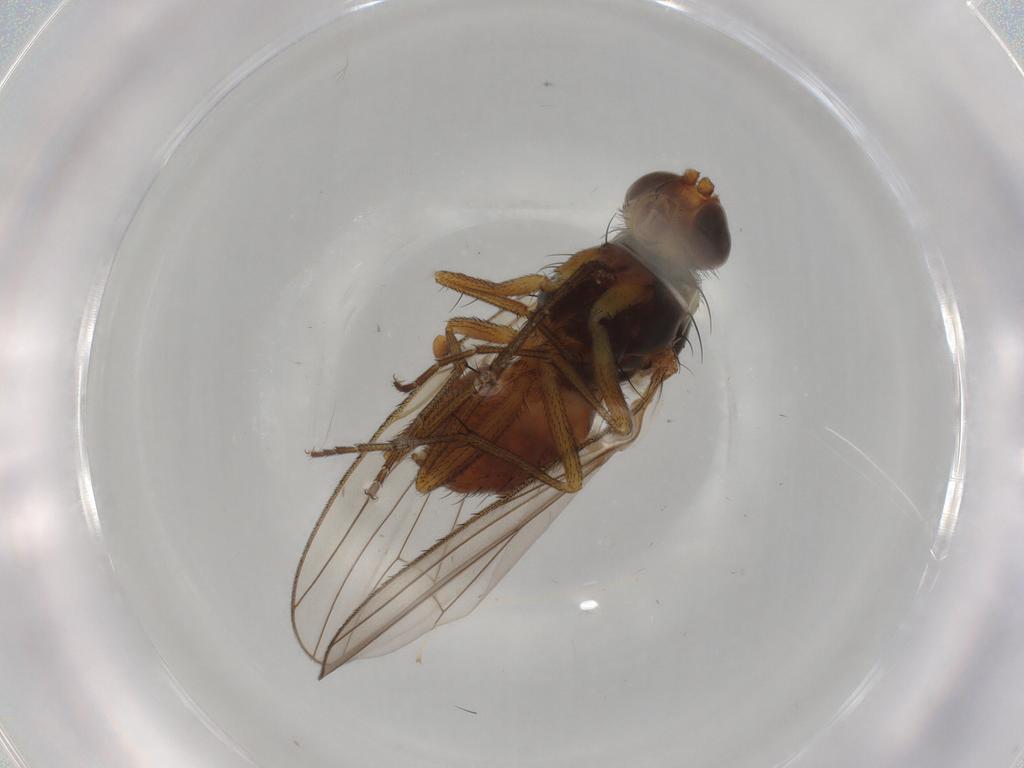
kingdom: Animalia
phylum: Arthropoda
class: Insecta
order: Diptera
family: Heleomyzidae
